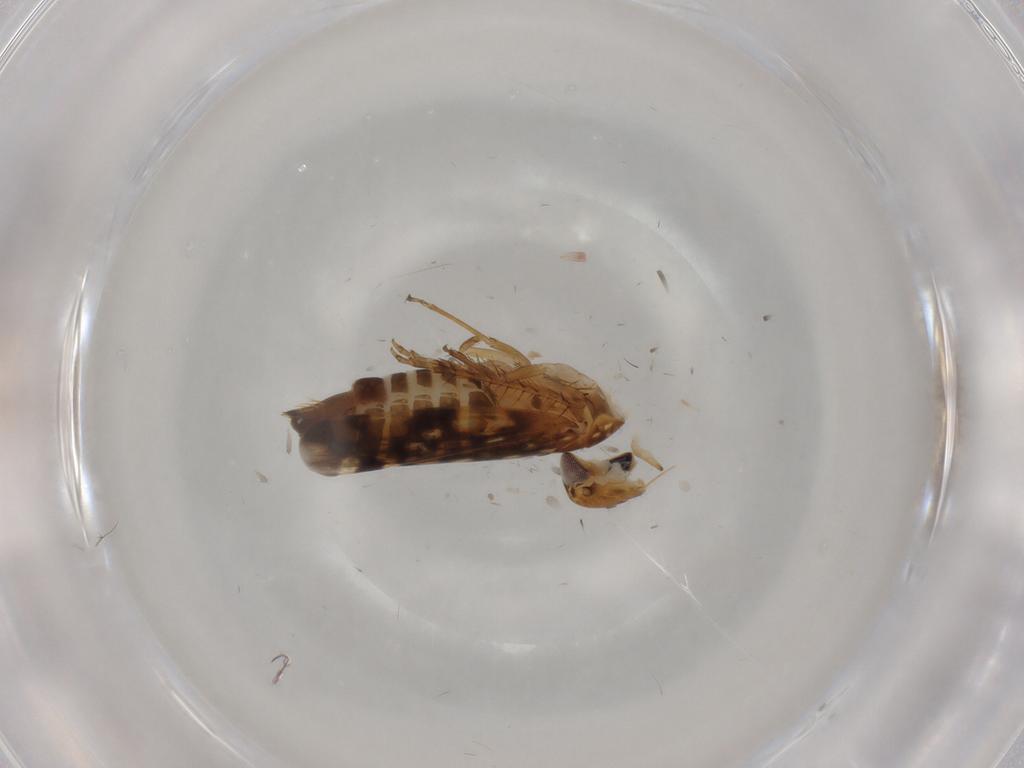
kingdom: Animalia
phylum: Arthropoda
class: Insecta
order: Hemiptera
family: Cicadellidae
